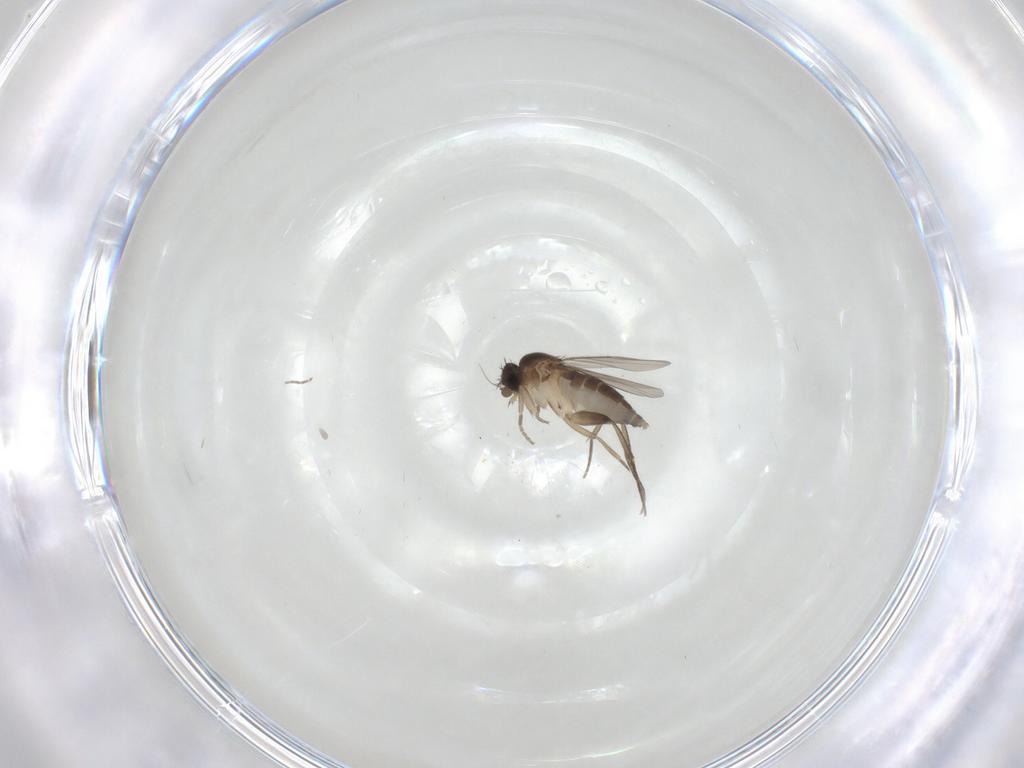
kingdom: Animalia
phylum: Arthropoda
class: Insecta
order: Diptera
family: Phoridae
